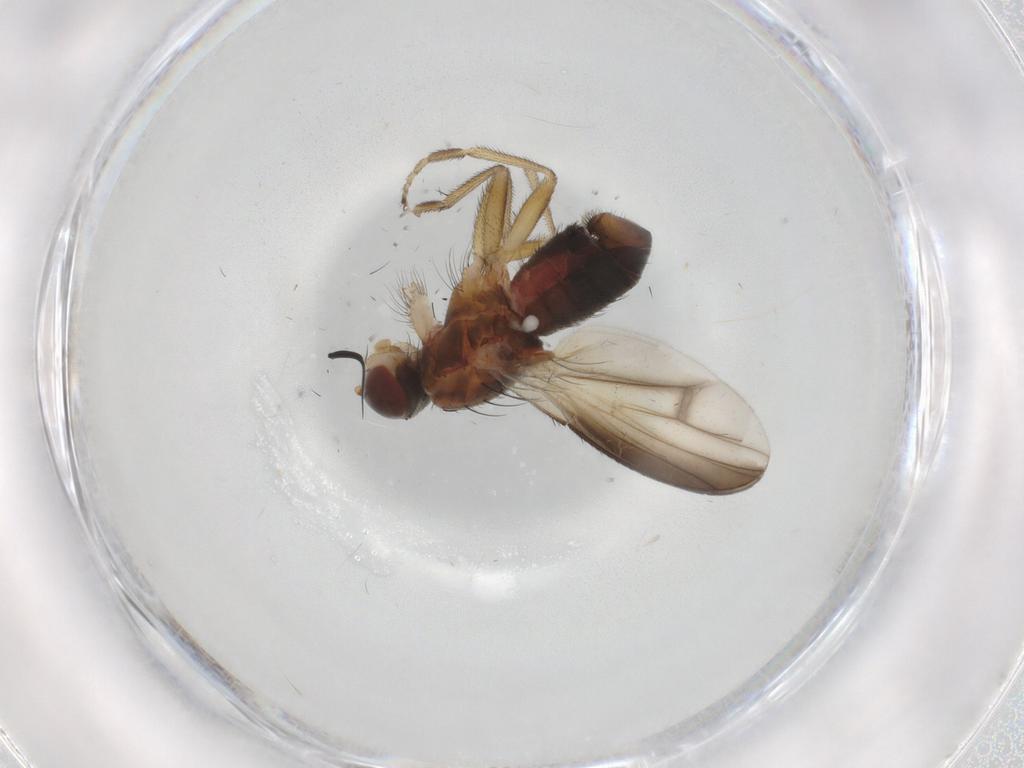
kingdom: Animalia
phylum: Arthropoda
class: Insecta
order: Diptera
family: Heleomyzidae
